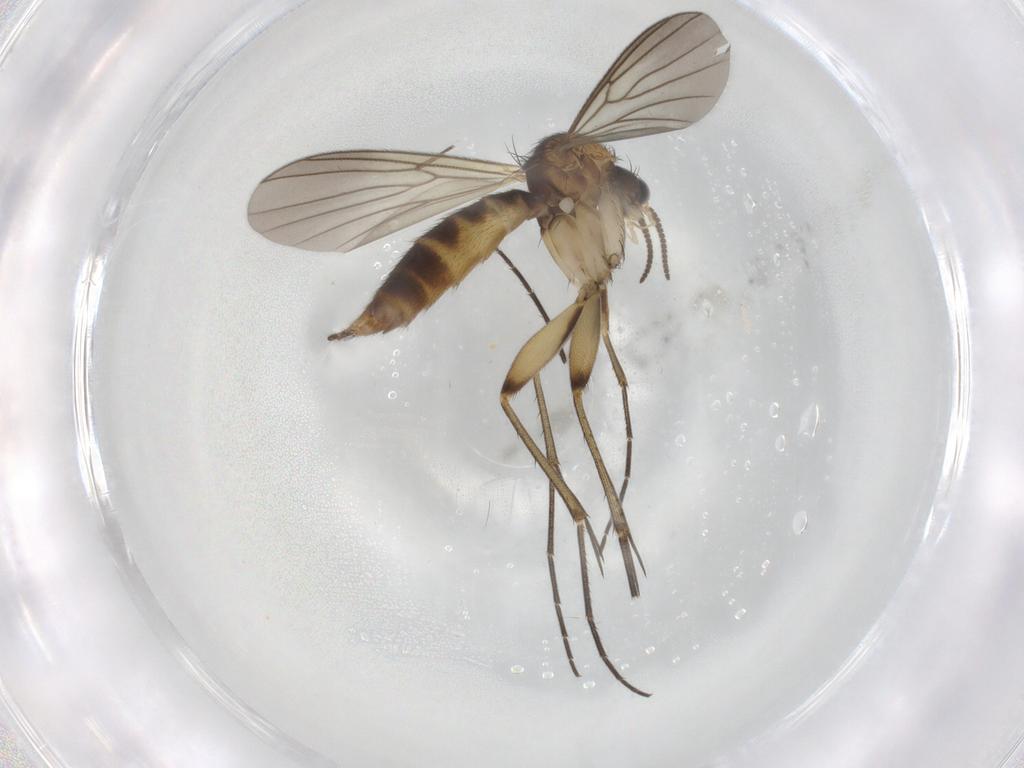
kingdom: Animalia
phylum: Arthropoda
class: Insecta
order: Diptera
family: Mycetophilidae
